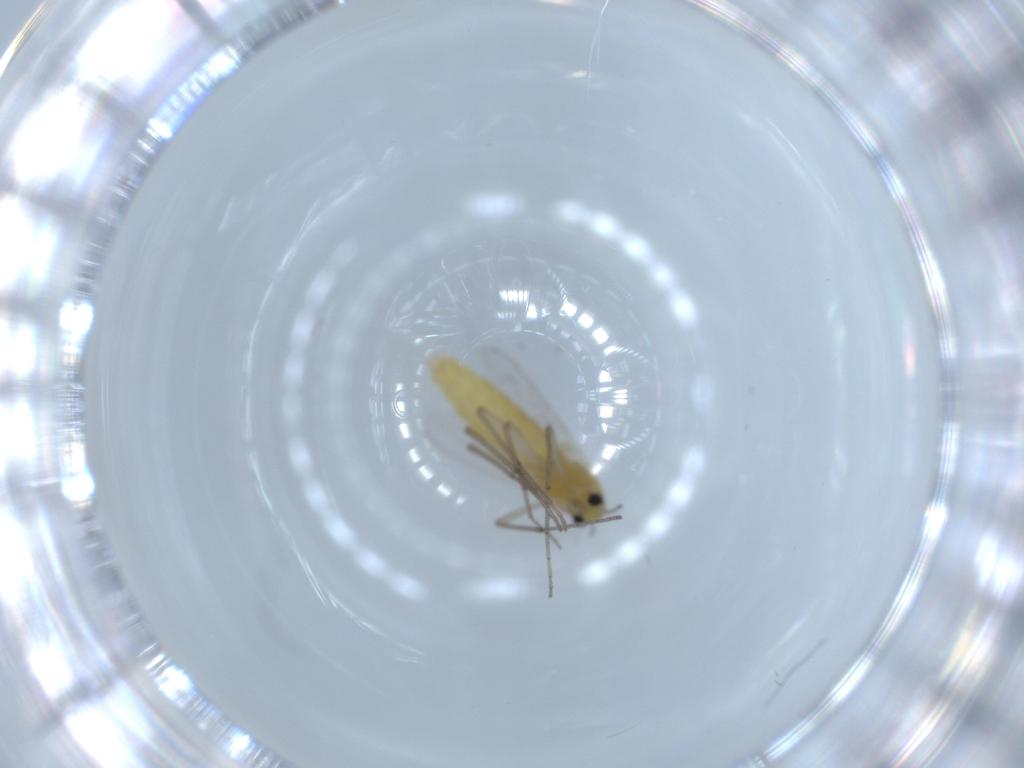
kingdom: Animalia
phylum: Arthropoda
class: Insecta
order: Diptera
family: Chironomidae
